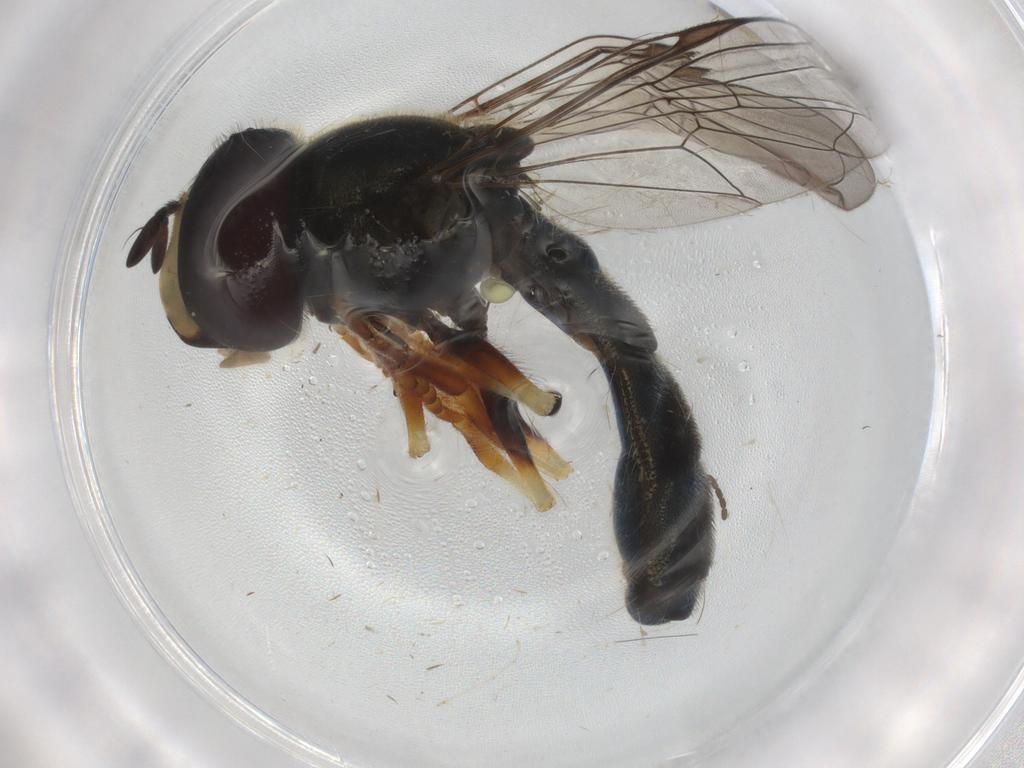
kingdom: Animalia
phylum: Arthropoda
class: Insecta
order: Diptera
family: Syrphidae
